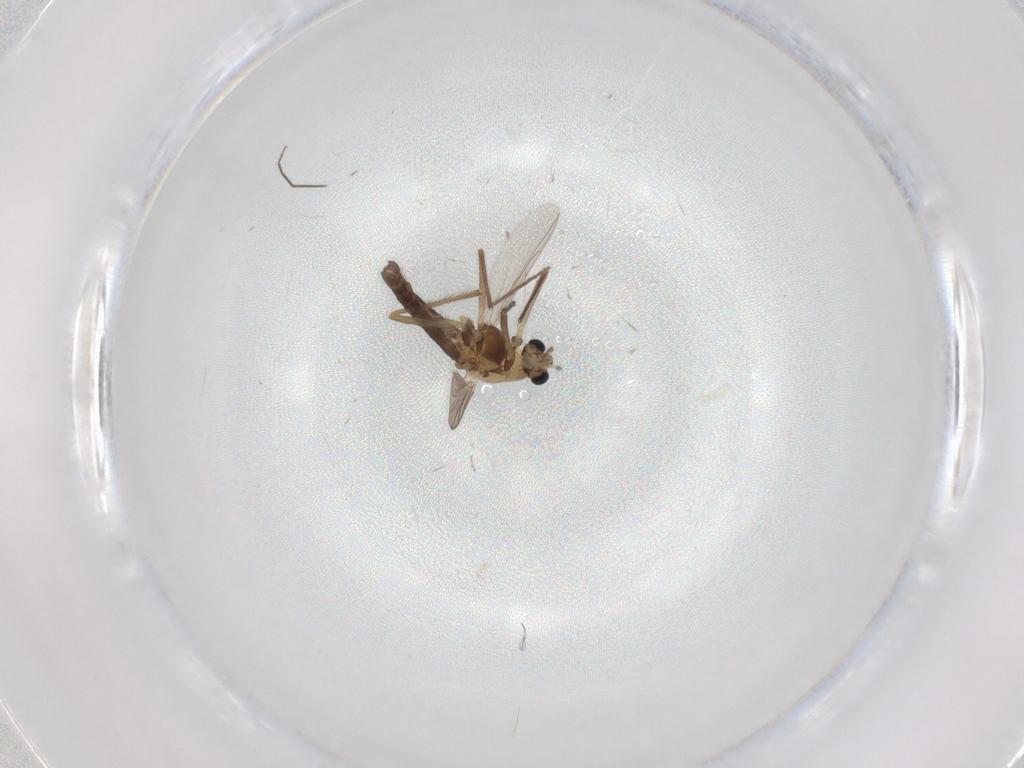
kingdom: Animalia
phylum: Arthropoda
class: Insecta
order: Diptera
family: Chironomidae
